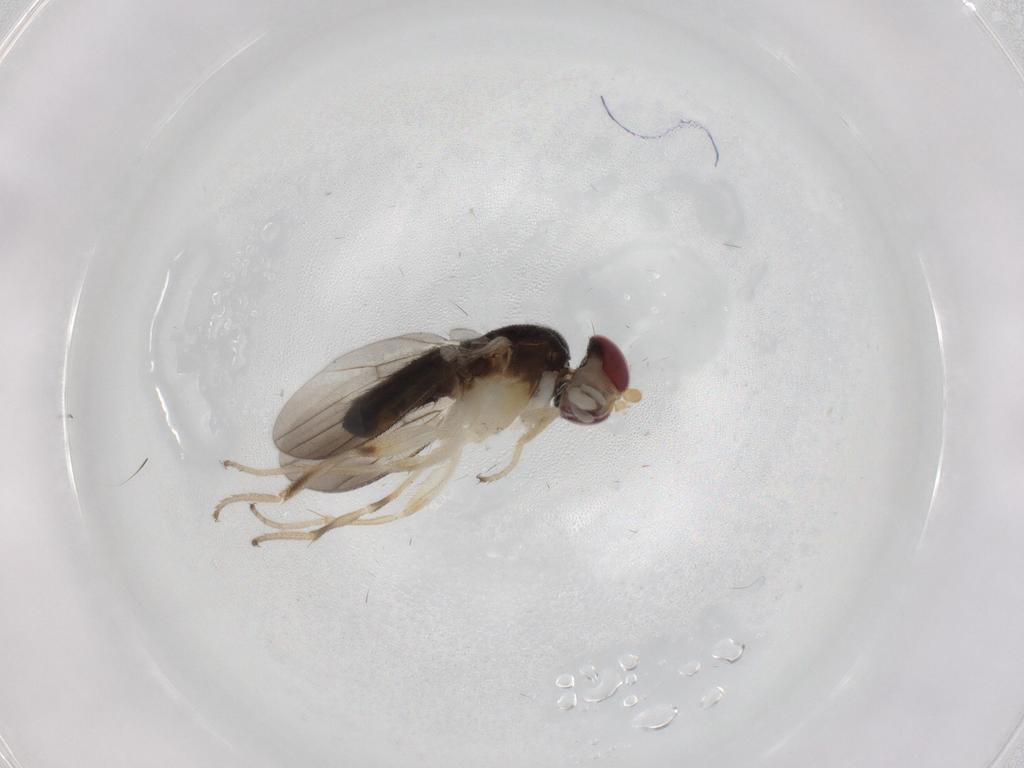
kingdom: Animalia
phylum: Arthropoda
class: Insecta
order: Diptera
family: Clusiidae
